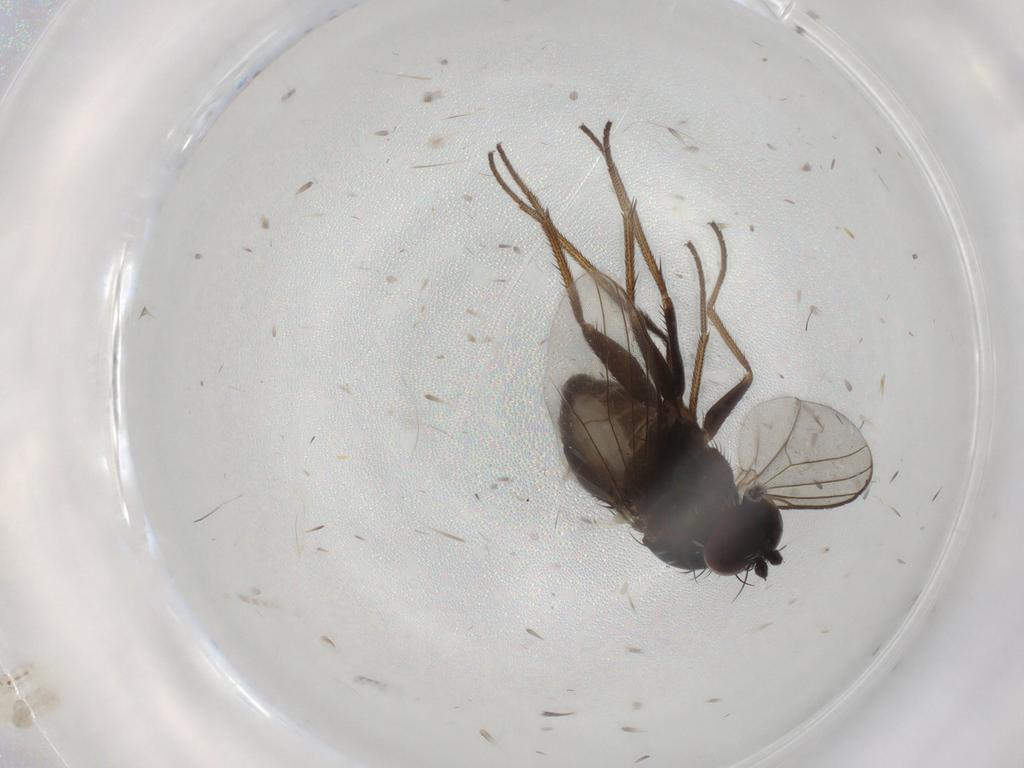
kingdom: Animalia
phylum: Arthropoda
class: Insecta
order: Diptera
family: Dolichopodidae
